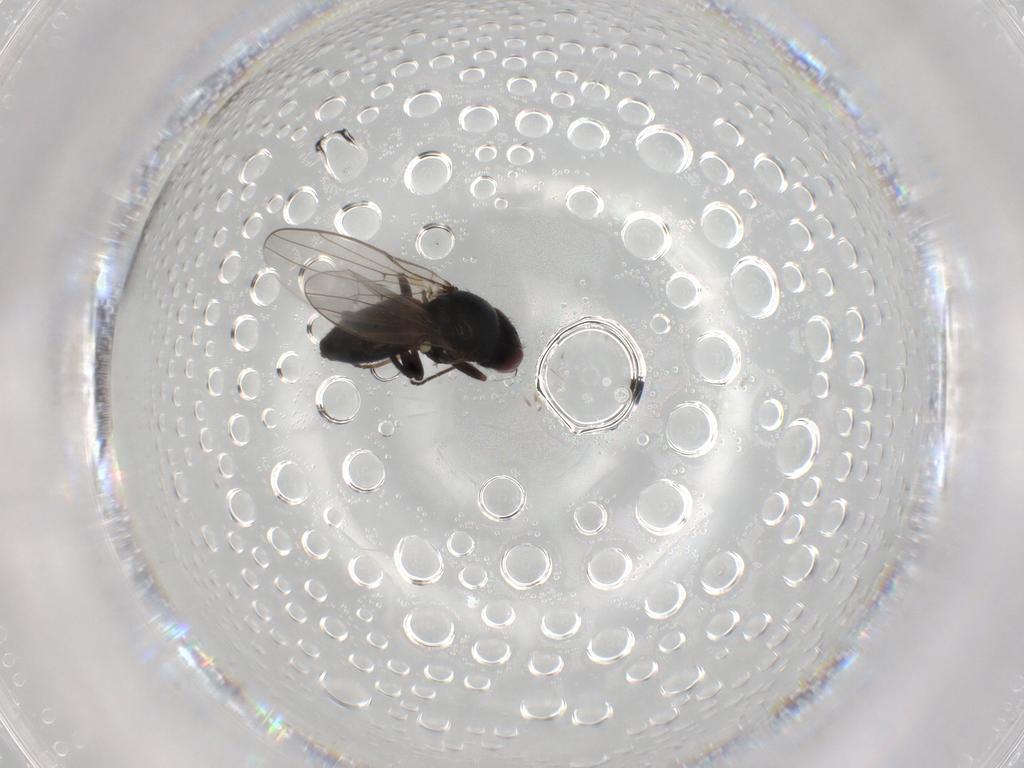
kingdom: Animalia
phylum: Arthropoda
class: Insecta
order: Diptera
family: Chloropidae
